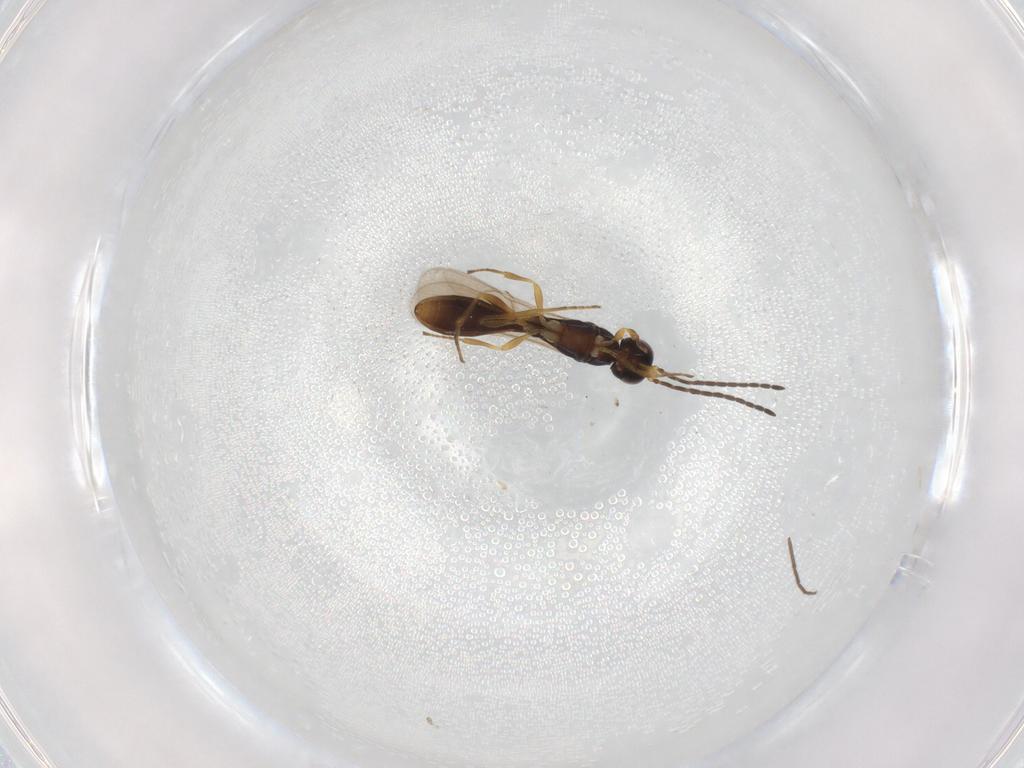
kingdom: Animalia
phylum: Arthropoda
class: Insecta
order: Hymenoptera
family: Scelionidae
